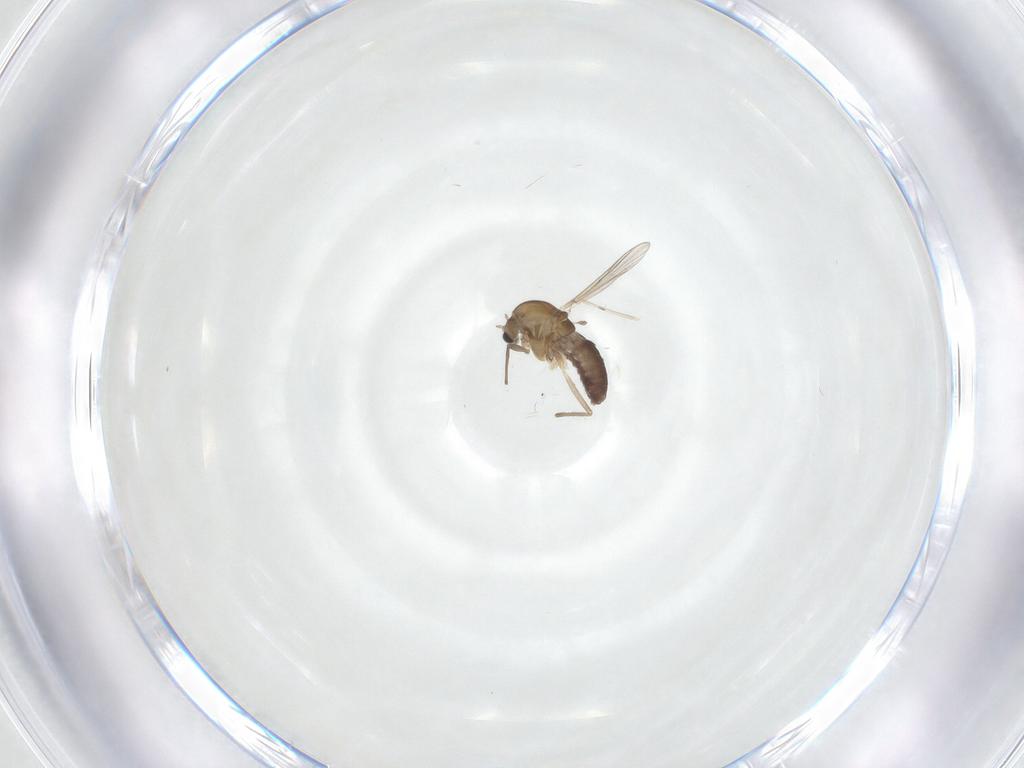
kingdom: Animalia
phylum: Arthropoda
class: Insecta
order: Diptera
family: Chironomidae
